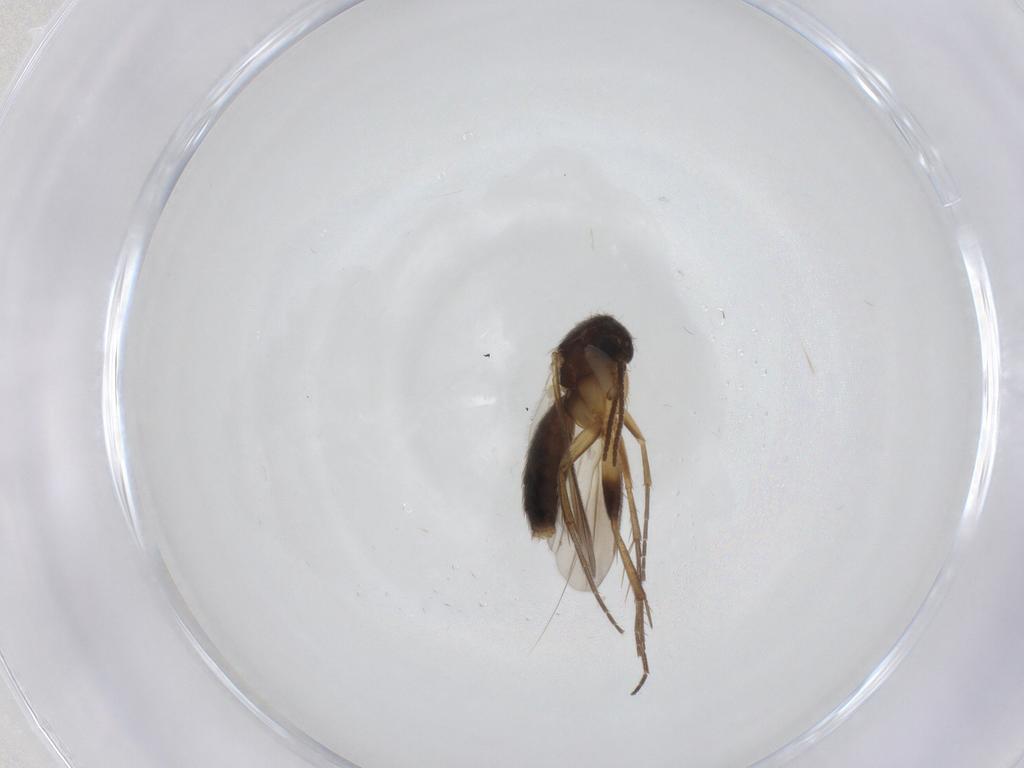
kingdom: Animalia
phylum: Arthropoda
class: Insecta
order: Diptera
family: Mycetophilidae
